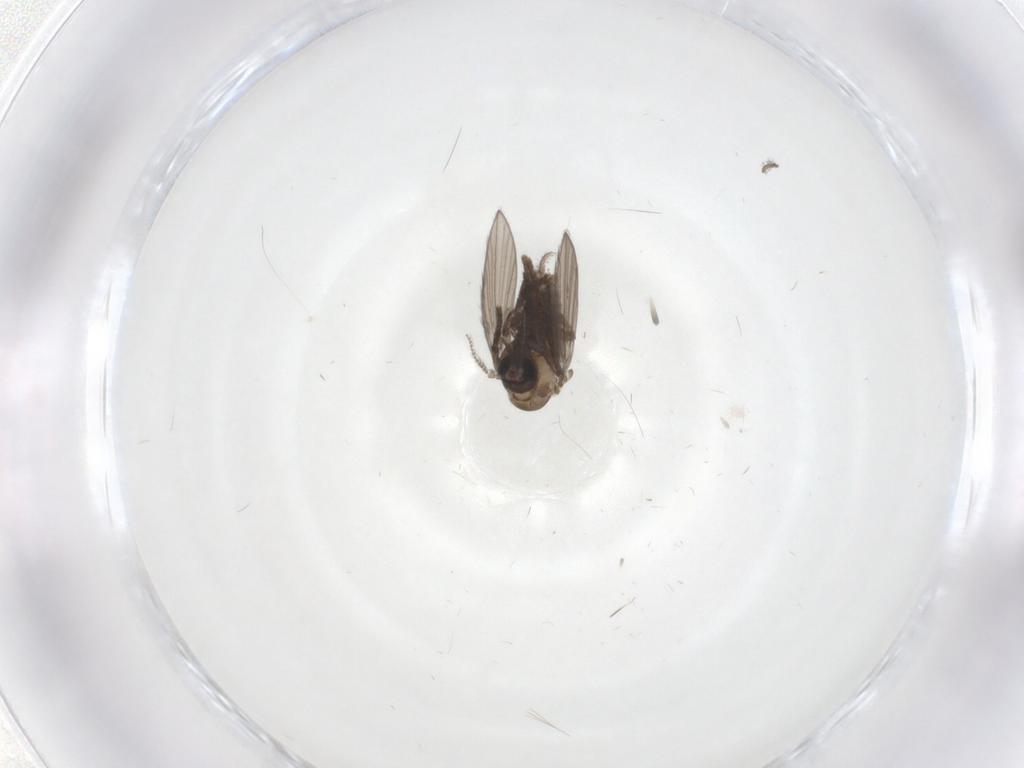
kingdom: Animalia
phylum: Arthropoda
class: Insecta
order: Diptera
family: Psychodidae
